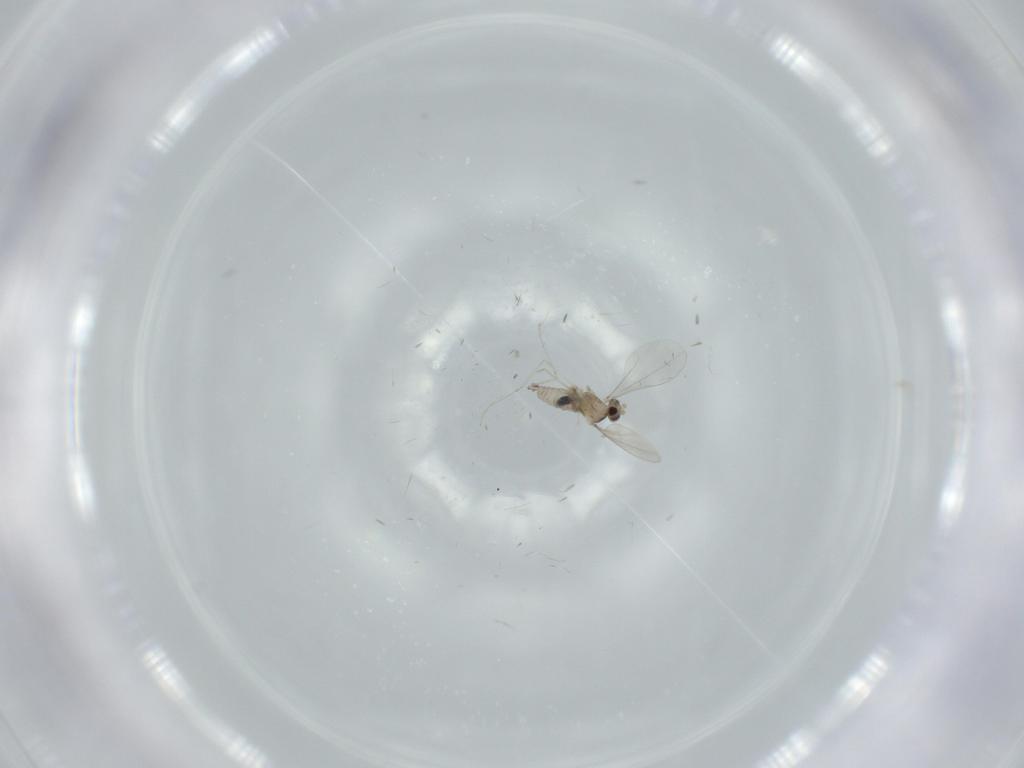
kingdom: Animalia
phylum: Arthropoda
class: Insecta
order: Diptera
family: Cecidomyiidae
